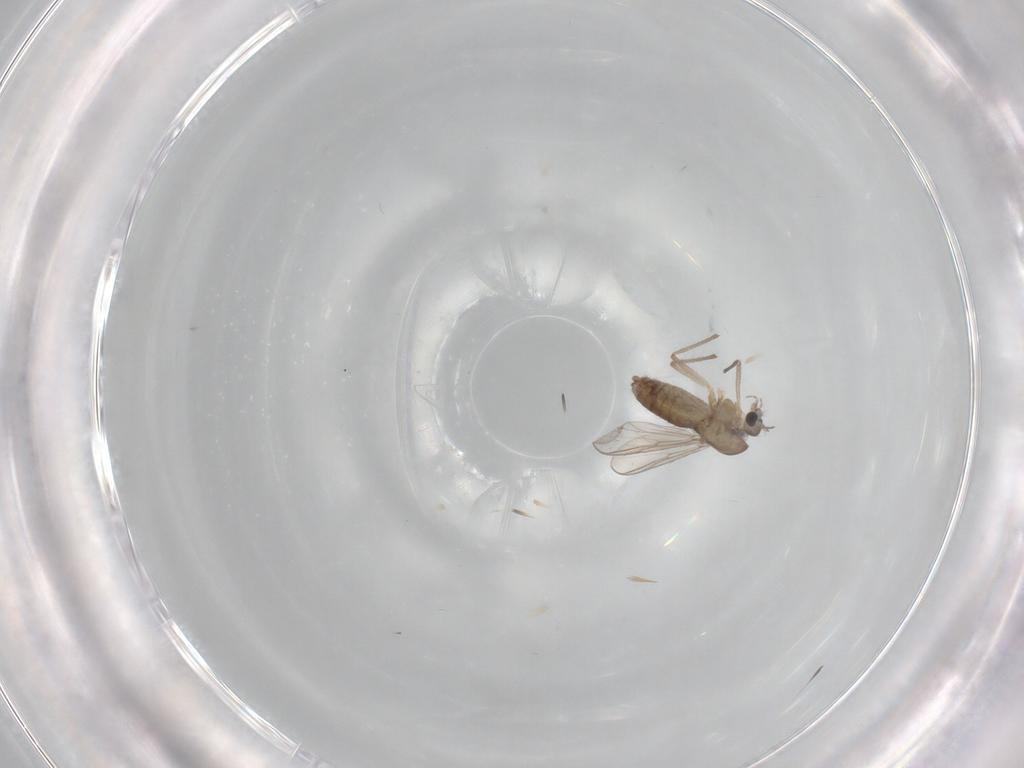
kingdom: Animalia
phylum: Arthropoda
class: Insecta
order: Diptera
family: Chironomidae
